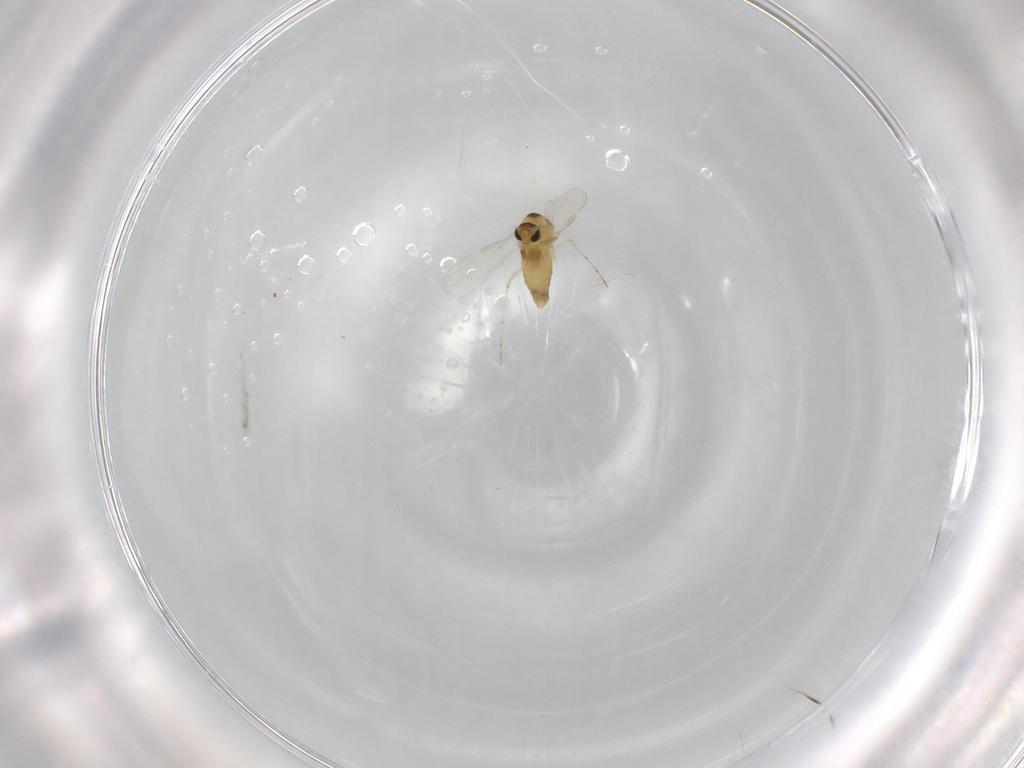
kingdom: Animalia
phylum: Arthropoda
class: Insecta
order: Diptera
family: Chironomidae
